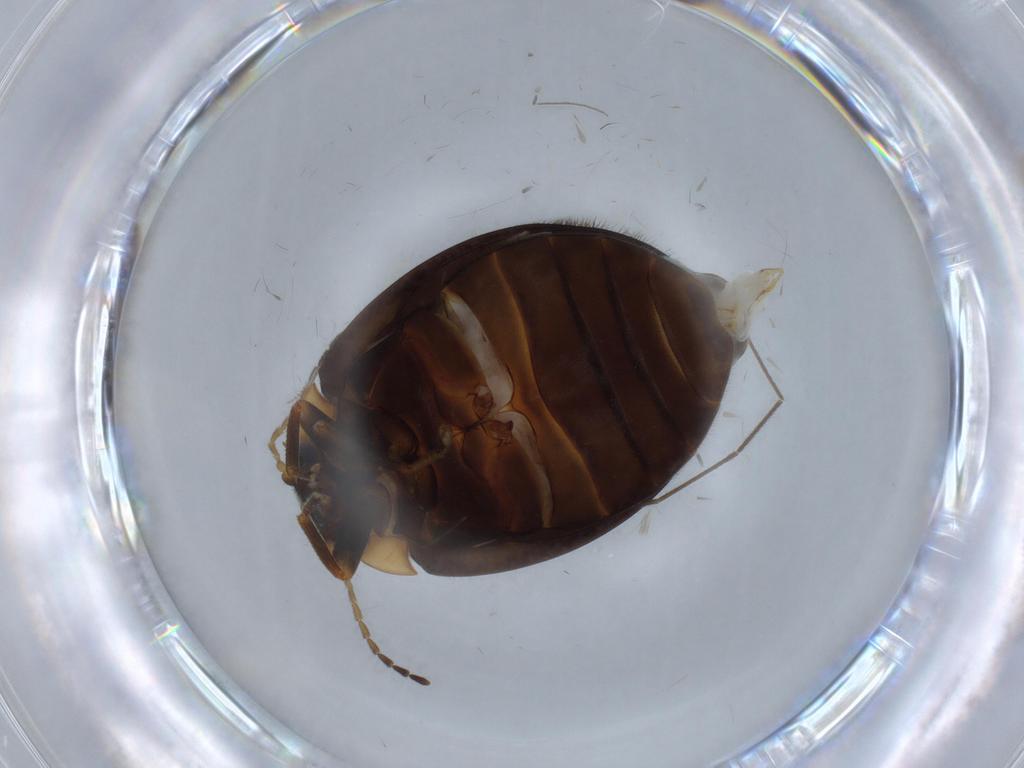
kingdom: Animalia
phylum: Arthropoda
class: Insecta
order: Coleoptera
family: Scirtidae
